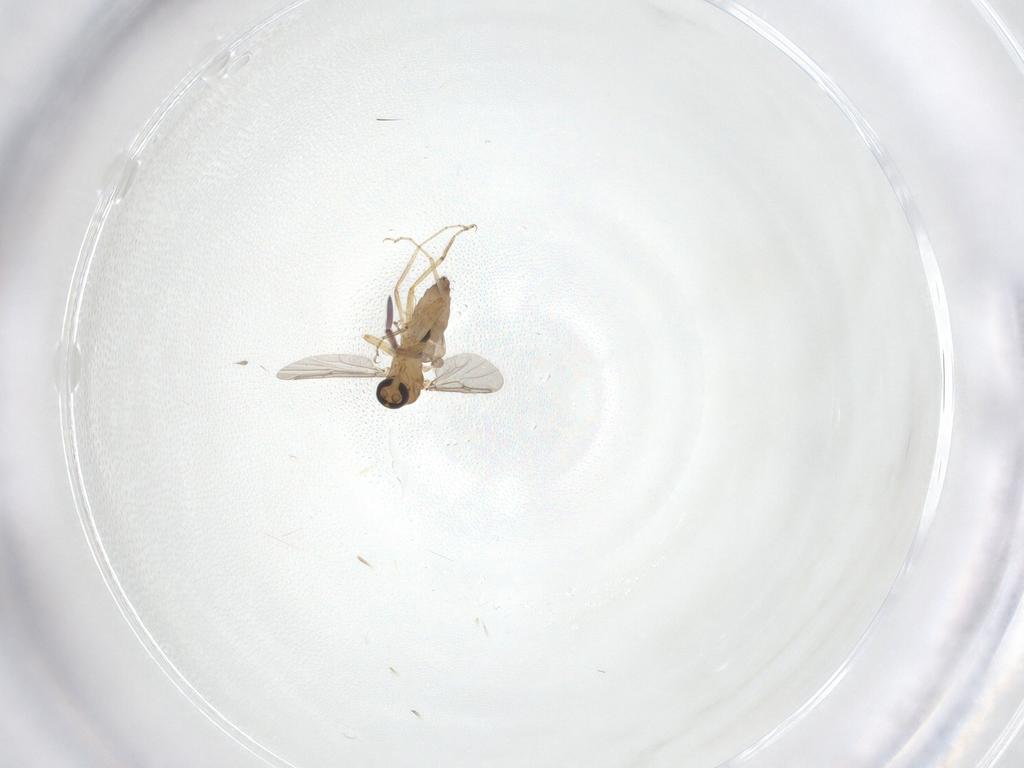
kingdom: Animalia
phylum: Arthropoda
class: Insecta
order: Diptera
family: Ceratopogonidae
